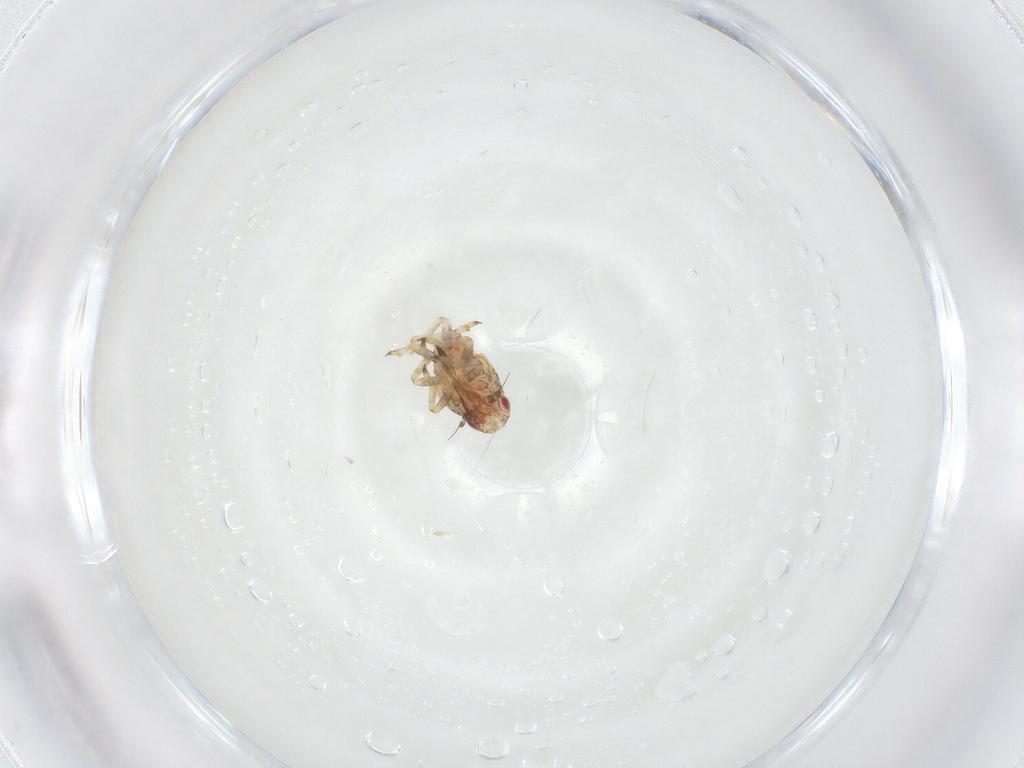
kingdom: Animalia
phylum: Arthropoda
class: Insecta
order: Hemiptera
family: Tropiduchidae
